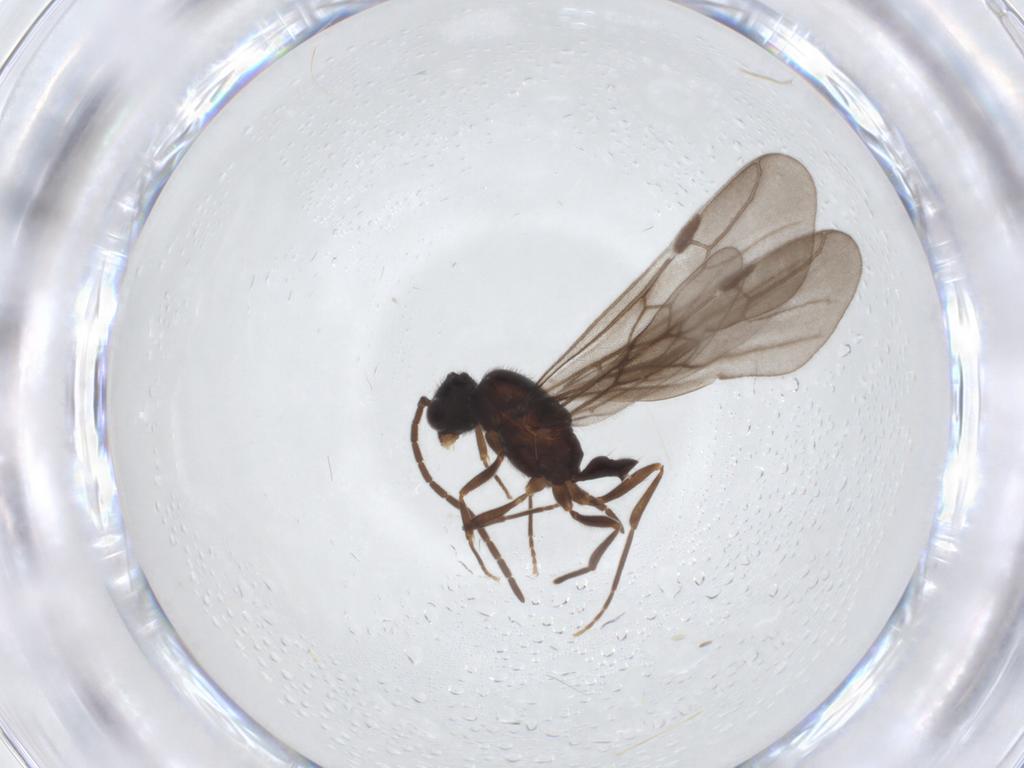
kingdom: Animalia
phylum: Arthropoda
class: Insecta
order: Hymenoptera
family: Formicidae
